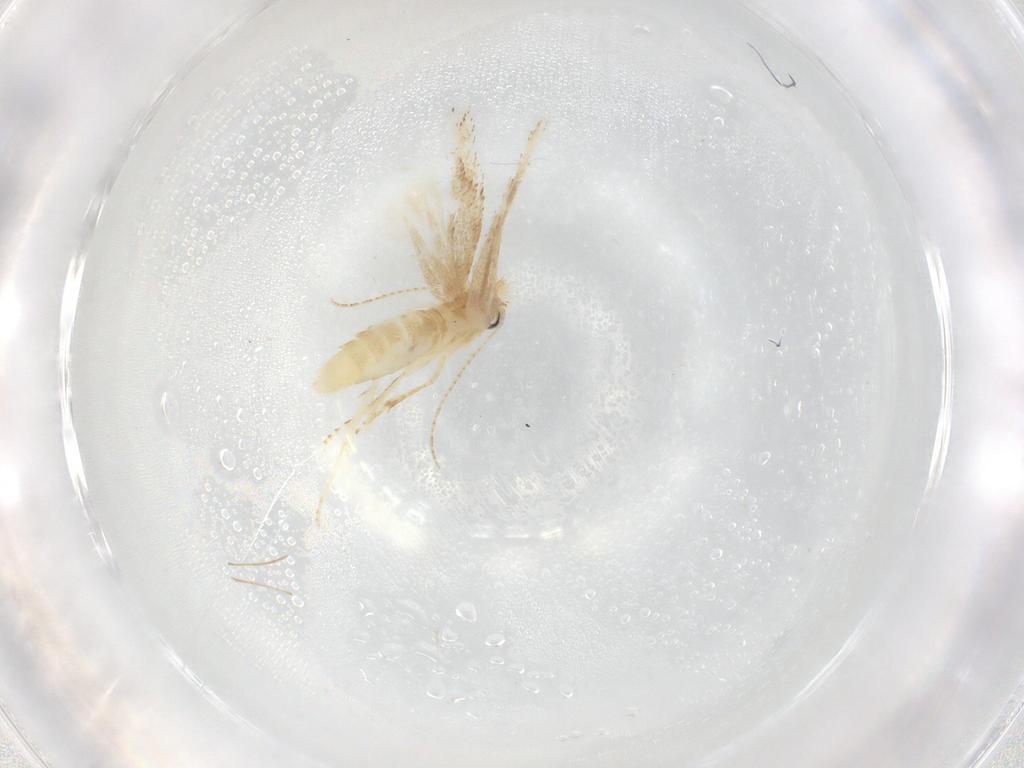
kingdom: Animalia
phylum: Arthropoda
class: Insecta
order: Lepidoptera
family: Depressariidae
